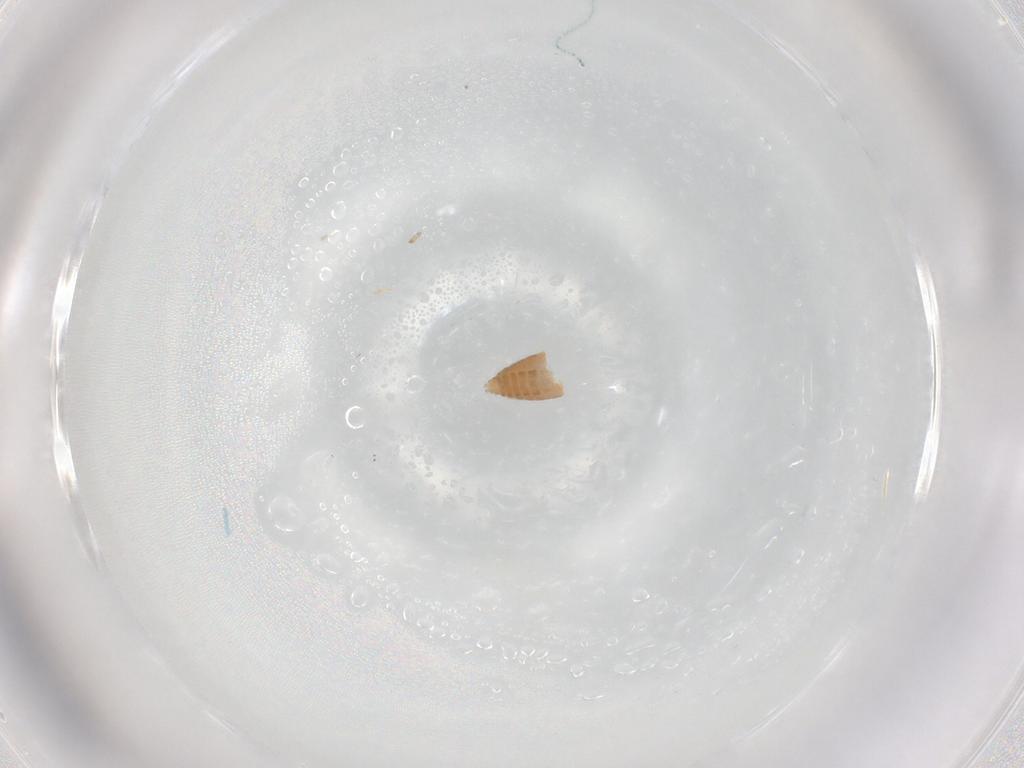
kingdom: Animalia
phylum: Arthropoda
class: Insecta
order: Diptera
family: Ceratopogonidae
